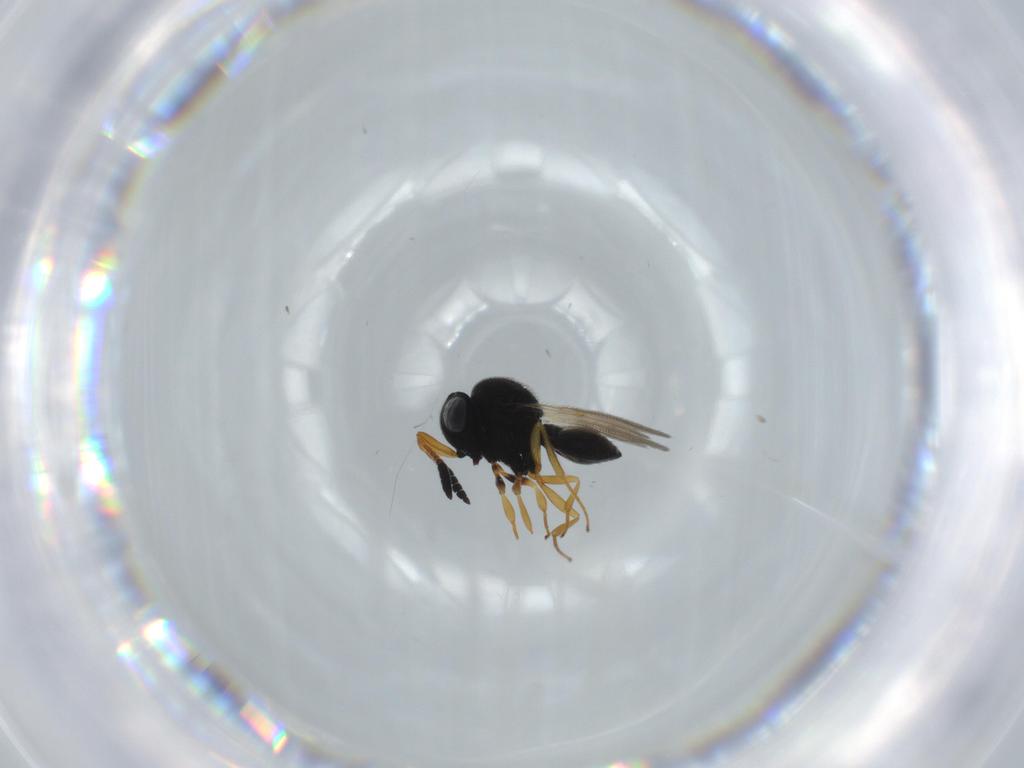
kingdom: Animalia
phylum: Arthropoda
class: Insecta
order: Hymenoptera
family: Scelionidae
